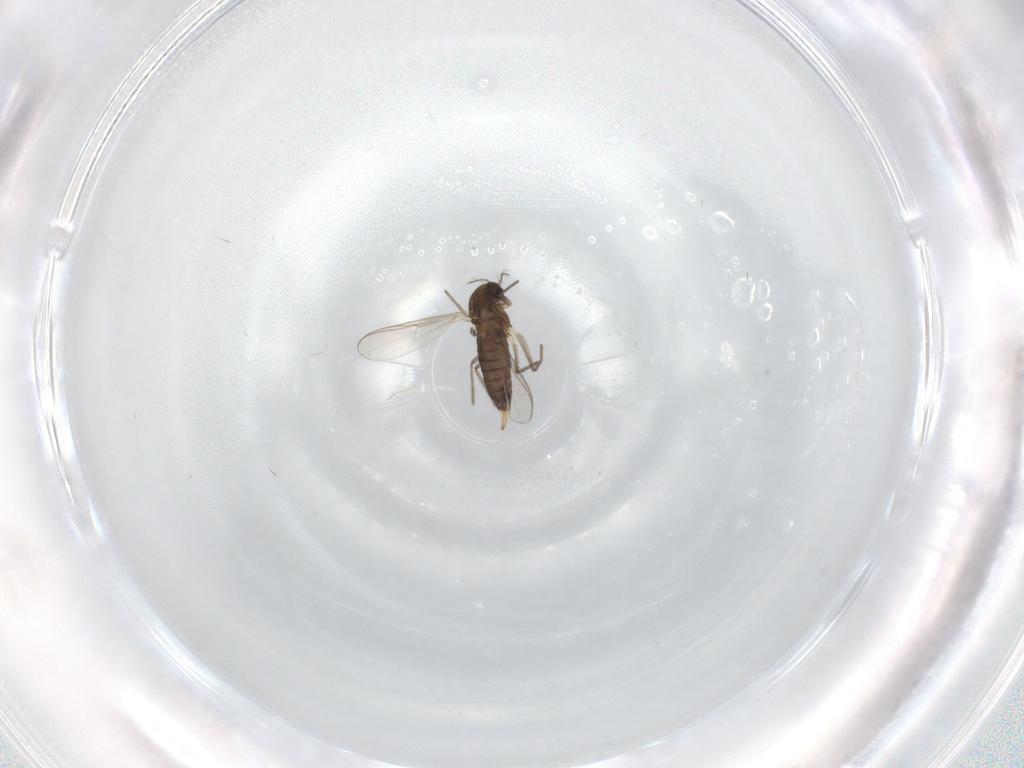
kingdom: Animalia
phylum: Arthropoda
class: Insecta
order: Diptera
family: Chironomidae
